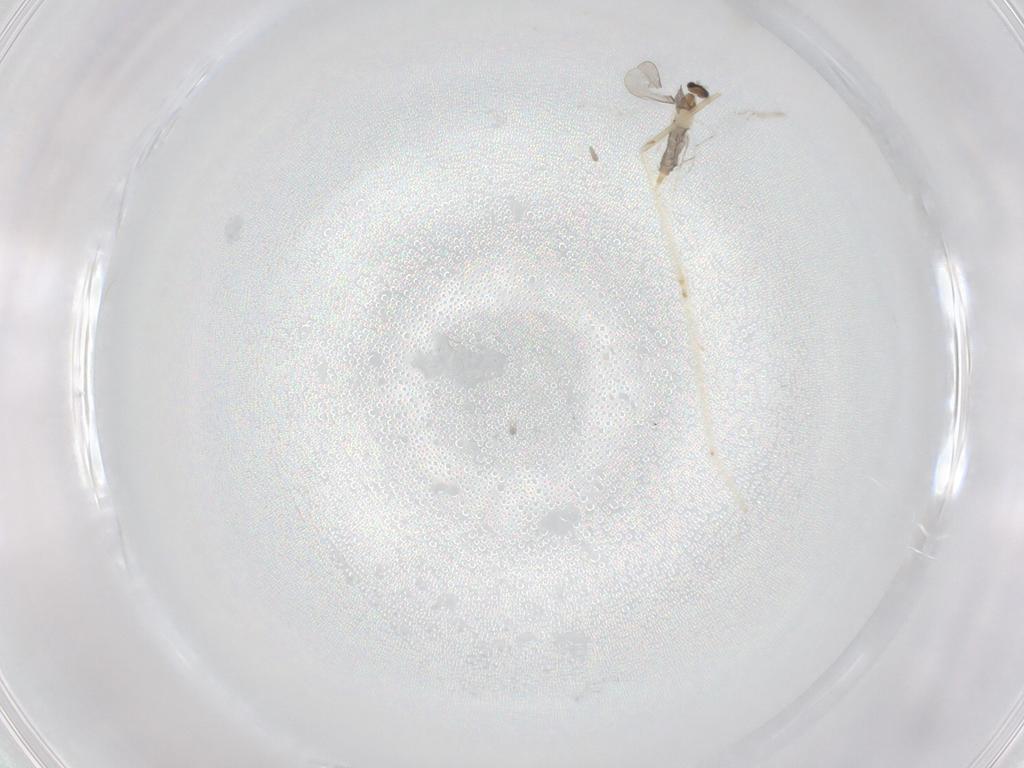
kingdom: Animalia
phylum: Arthropoda
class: Insecta
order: Diptera
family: Cecidomyiidae
